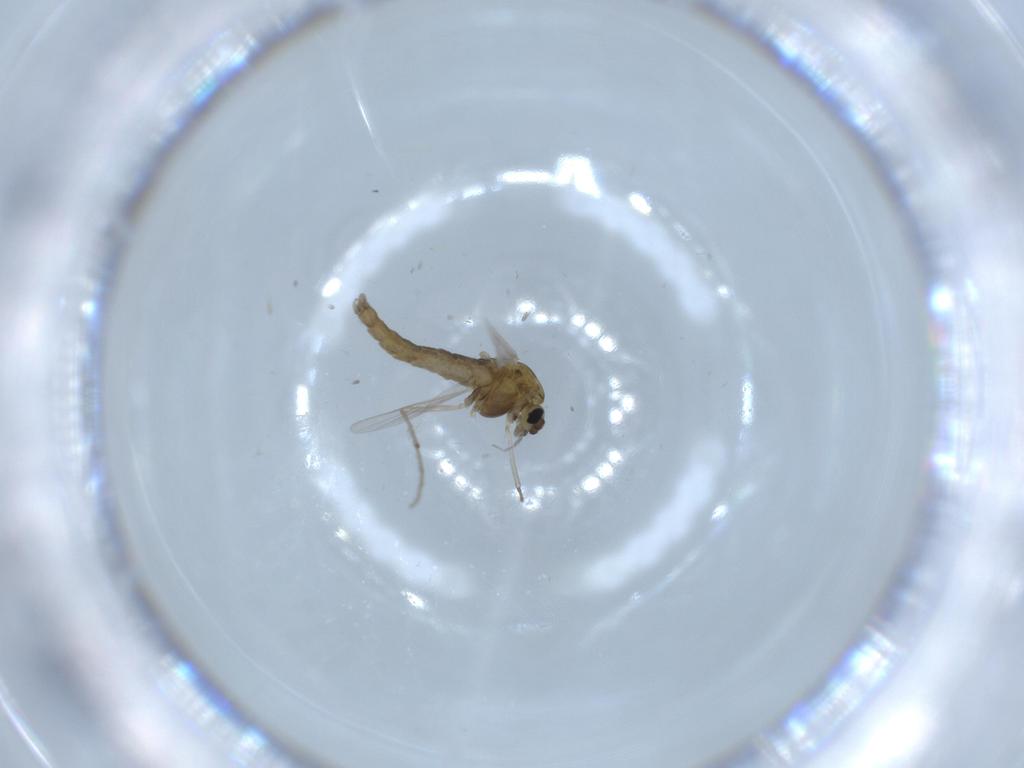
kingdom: Animalia
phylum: Arthropoda
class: Insecta
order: Diptera
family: Chironomidae
